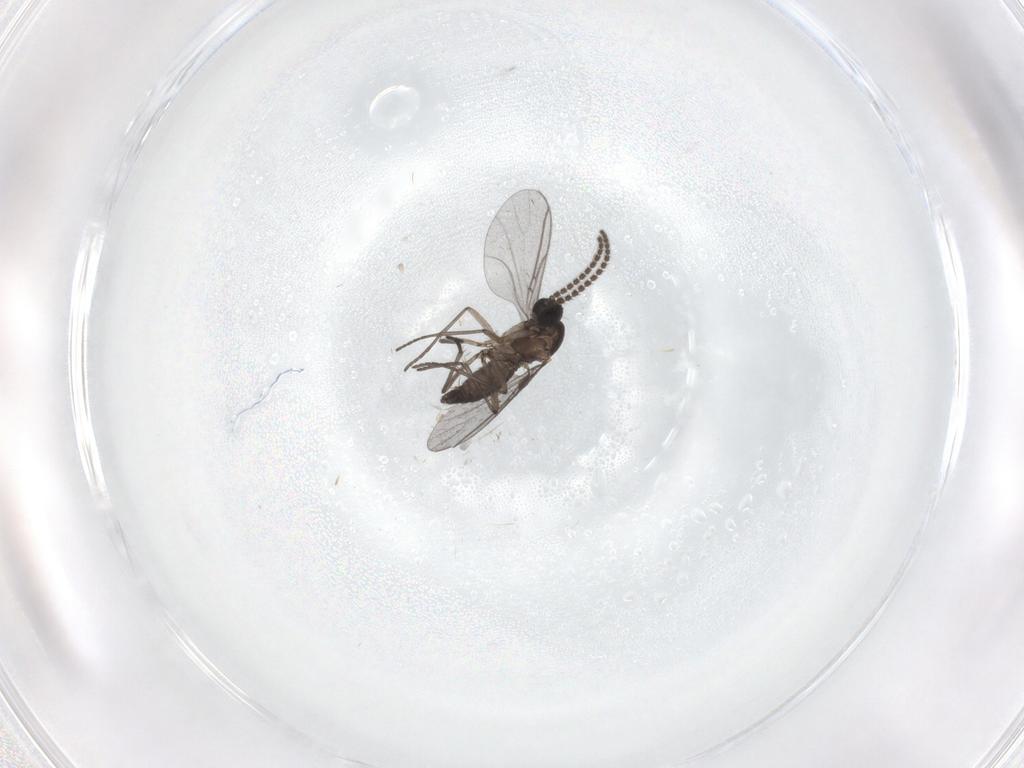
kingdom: Animalia
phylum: Arthropoda
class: Insecta
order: Diptera
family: Cecidomyiidae
